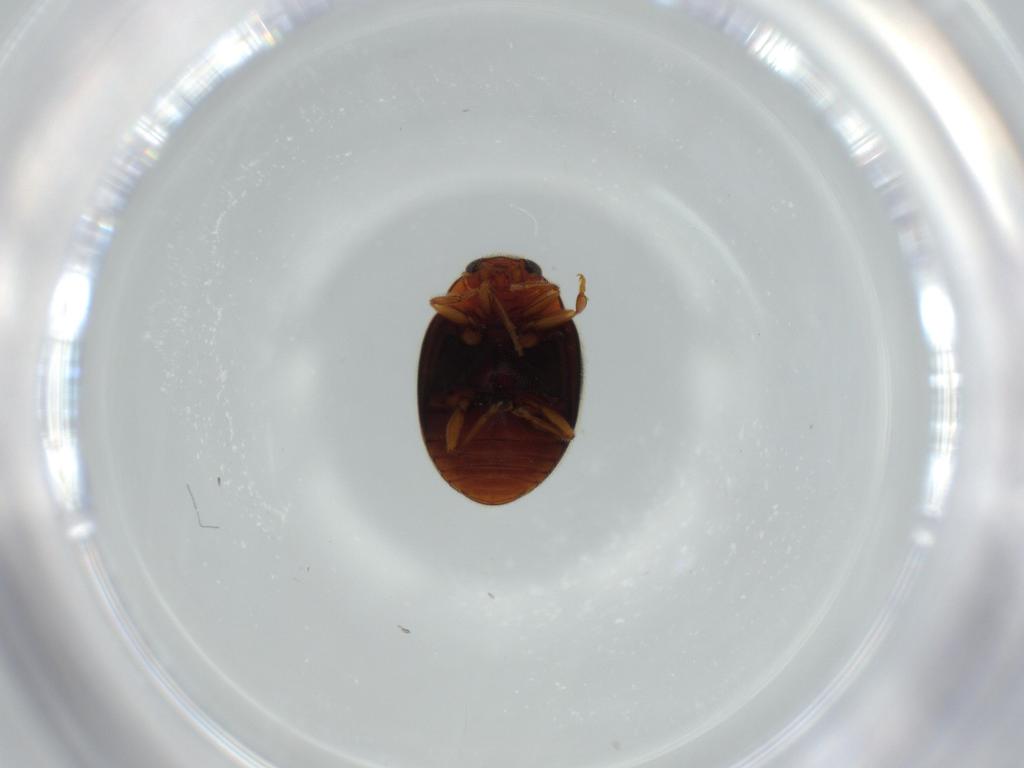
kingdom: Animalia
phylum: Arthropoda
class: Insecta
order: Coleoptera
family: Coccinellidae
